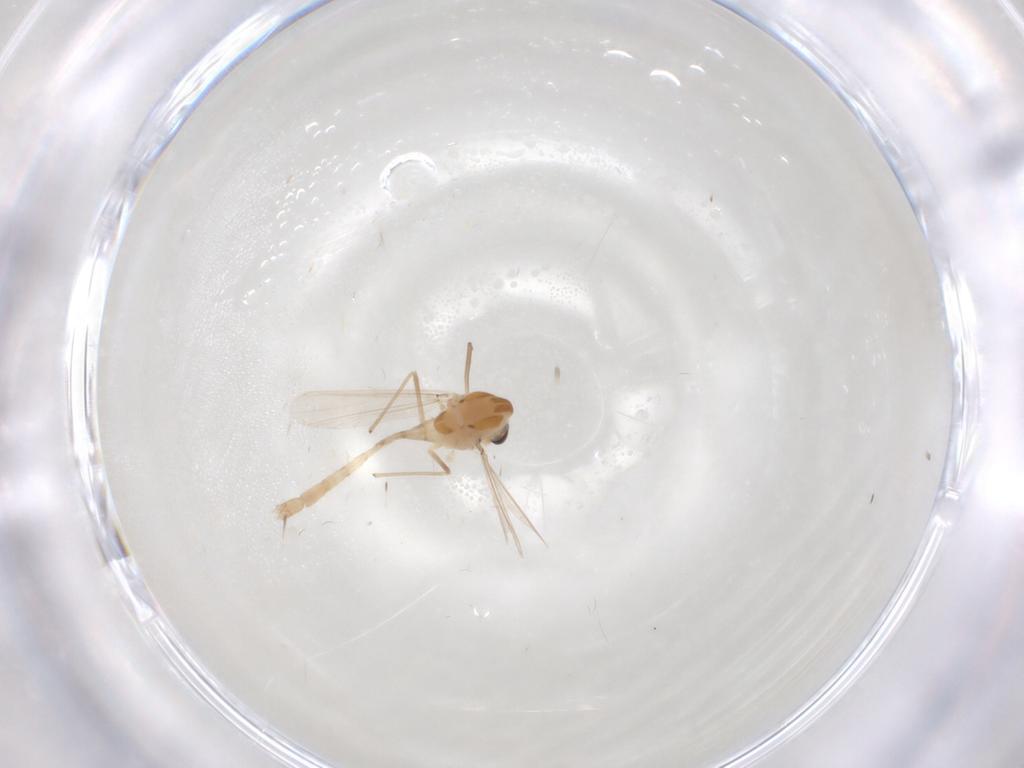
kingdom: Animalia
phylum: Arthropoda
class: Insecta
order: Diptera
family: Chironomidae
